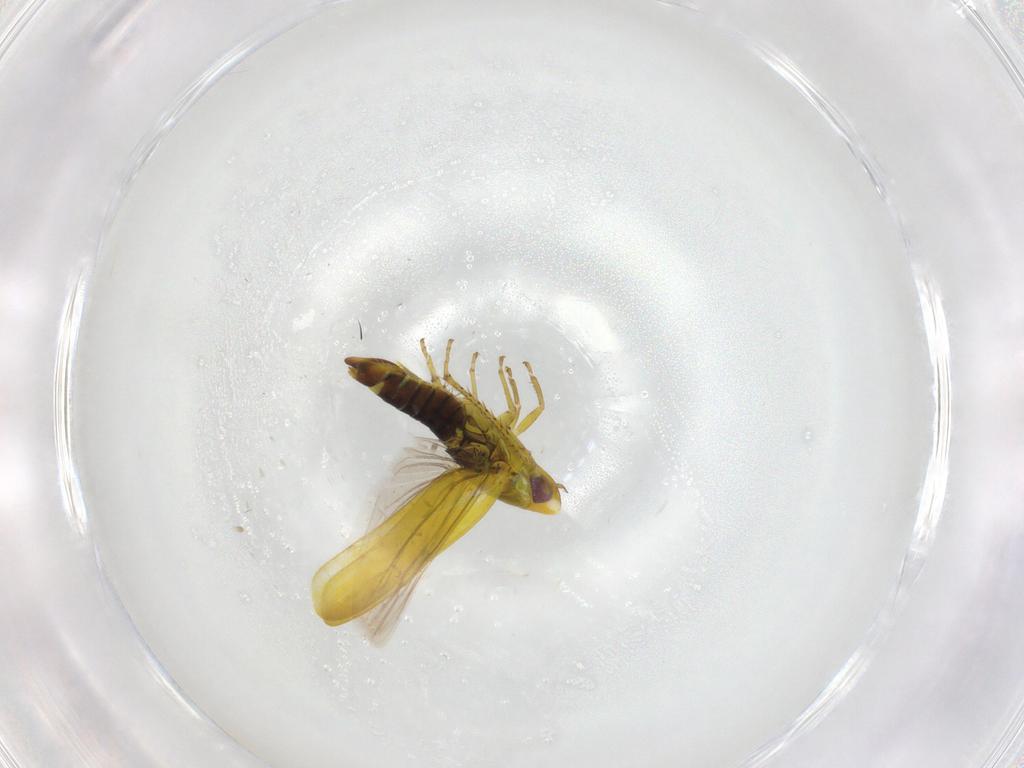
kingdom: Animalia
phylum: Arthropoda
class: Insecta
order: Hemiptera
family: Cicadellidae
